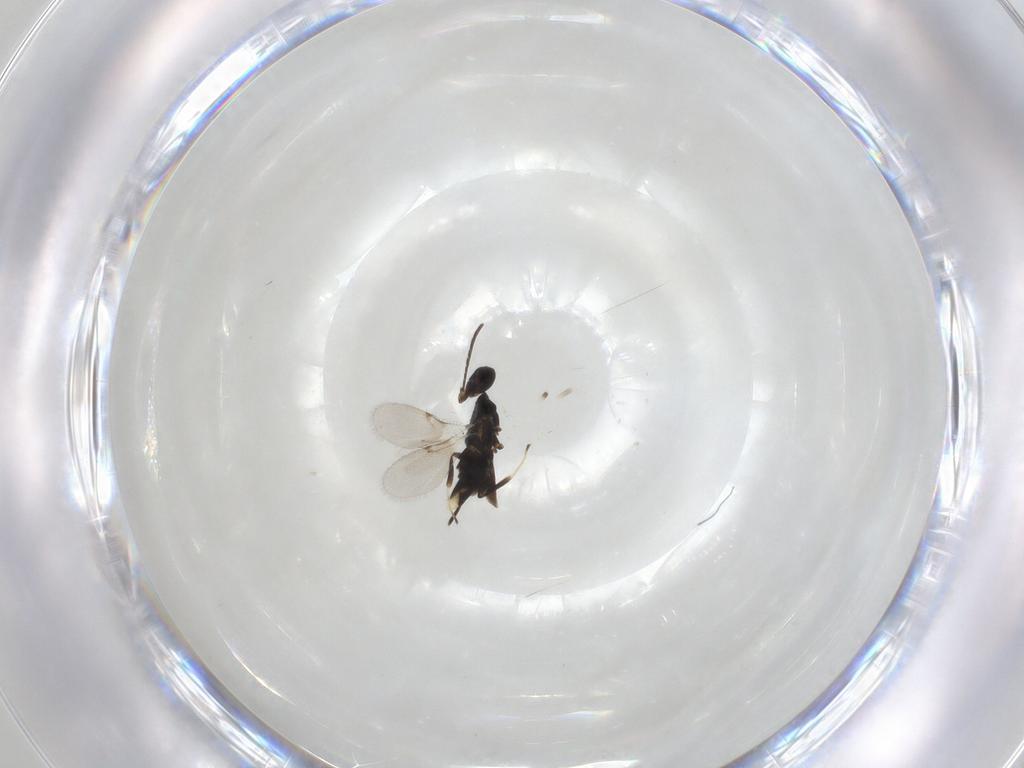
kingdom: Animalia
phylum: Arthropoda
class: Insecta
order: Hymenoptera
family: Encyrtidae
